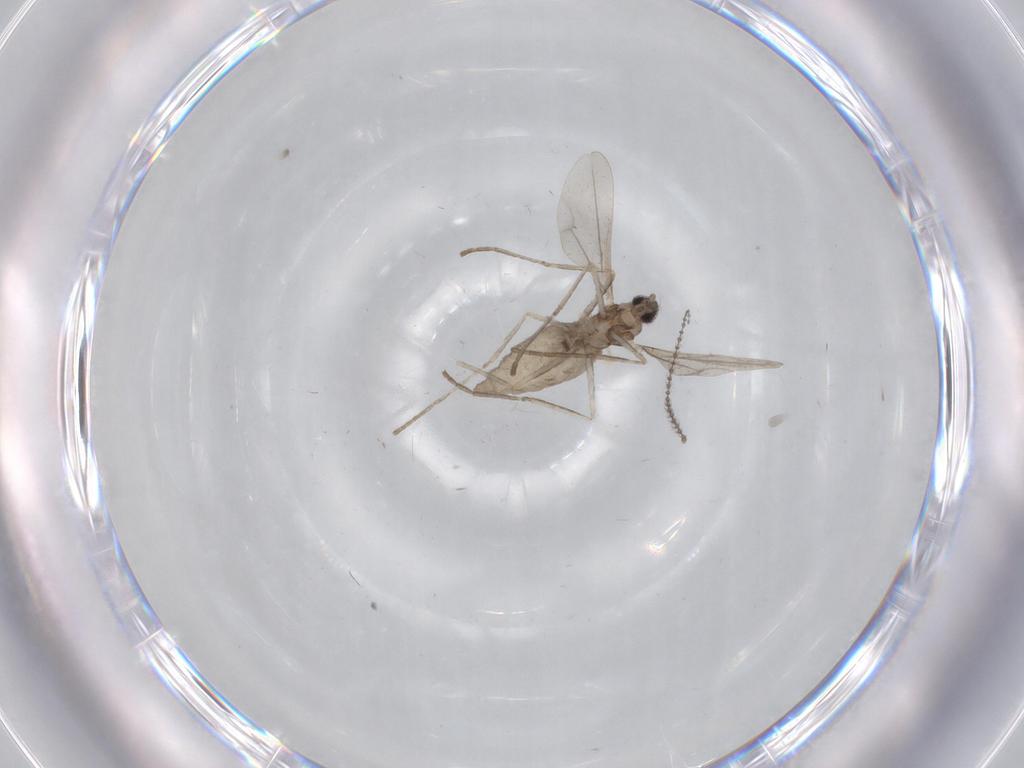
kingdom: Animalia
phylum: Arthropoda
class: Insecta
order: Diptera
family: Cecidomyiidae
